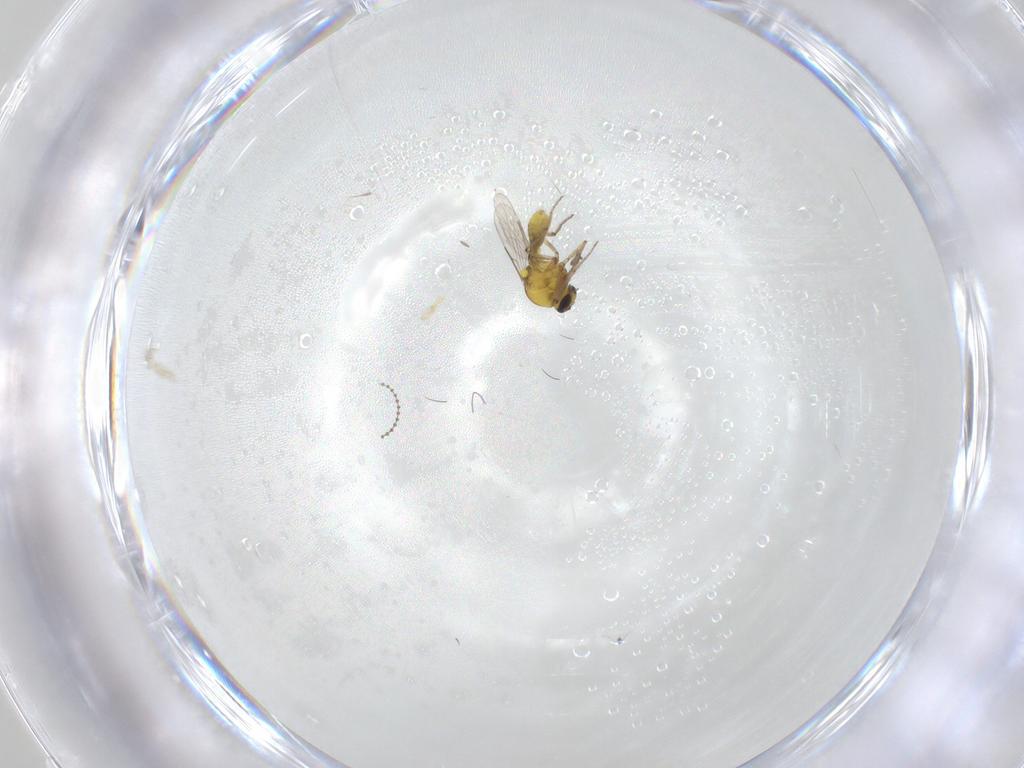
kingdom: Animalia
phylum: Arthropoda
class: Insecta
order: Diptera
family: Ceratopogonidae
